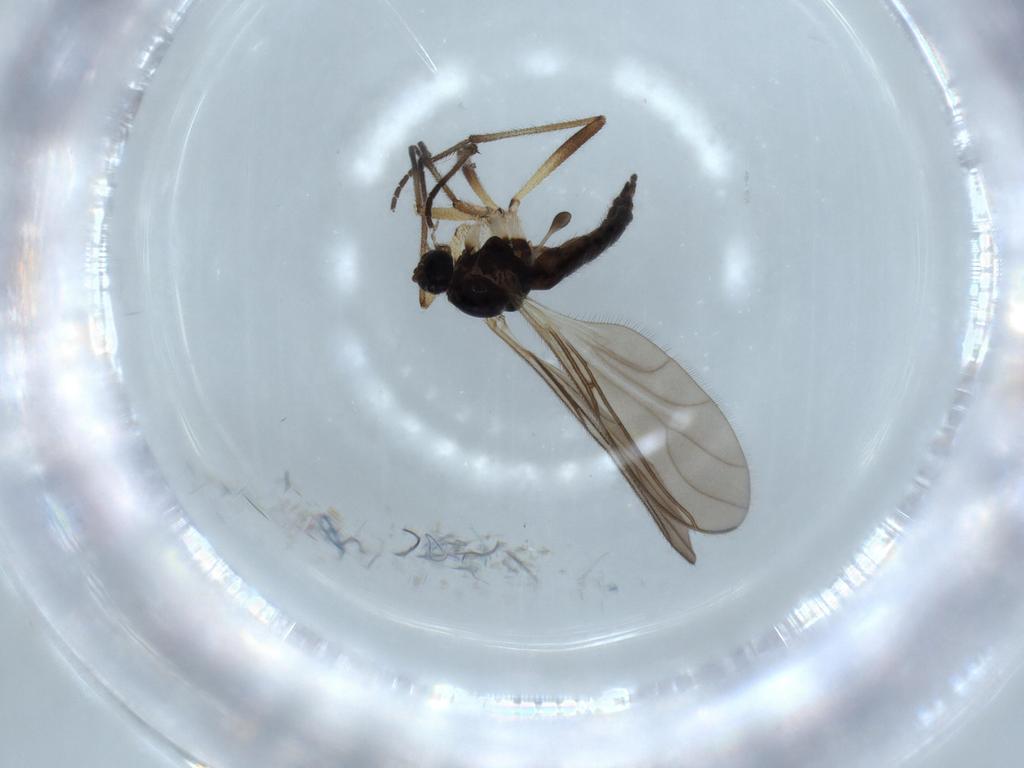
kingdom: Animalia
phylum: Arthropoda
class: Insecta
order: Diptera
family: Sciaridae
